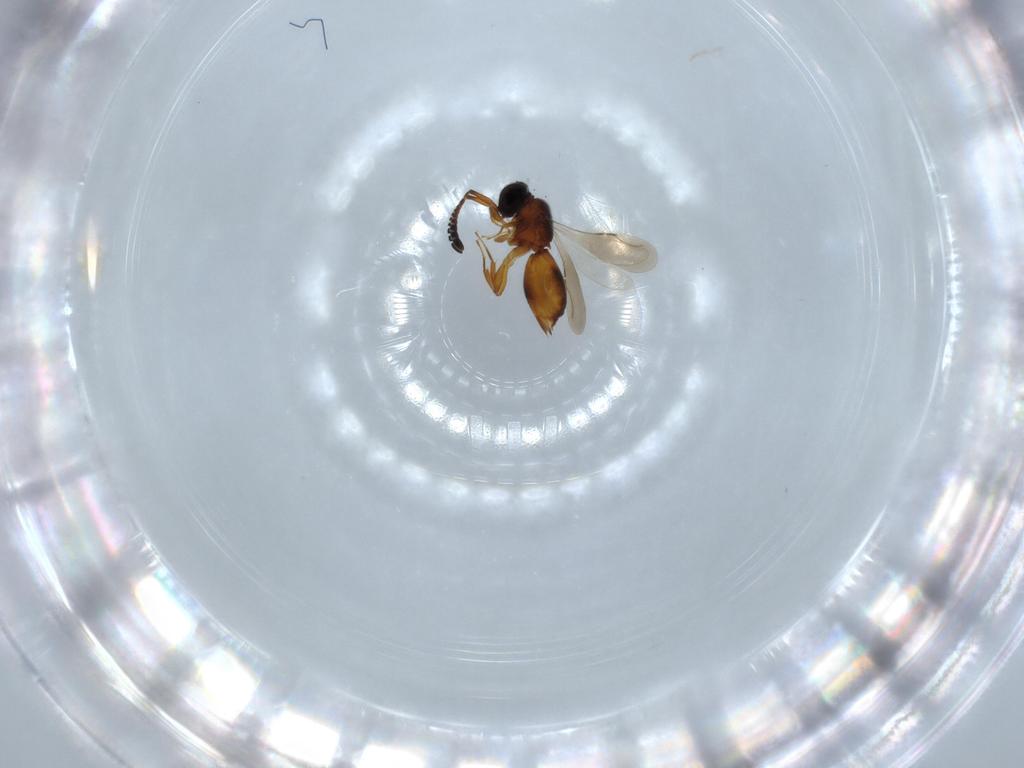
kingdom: Animalia
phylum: Arthropoda
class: Insecta
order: Hymenoptera
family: Ceraphronidae
